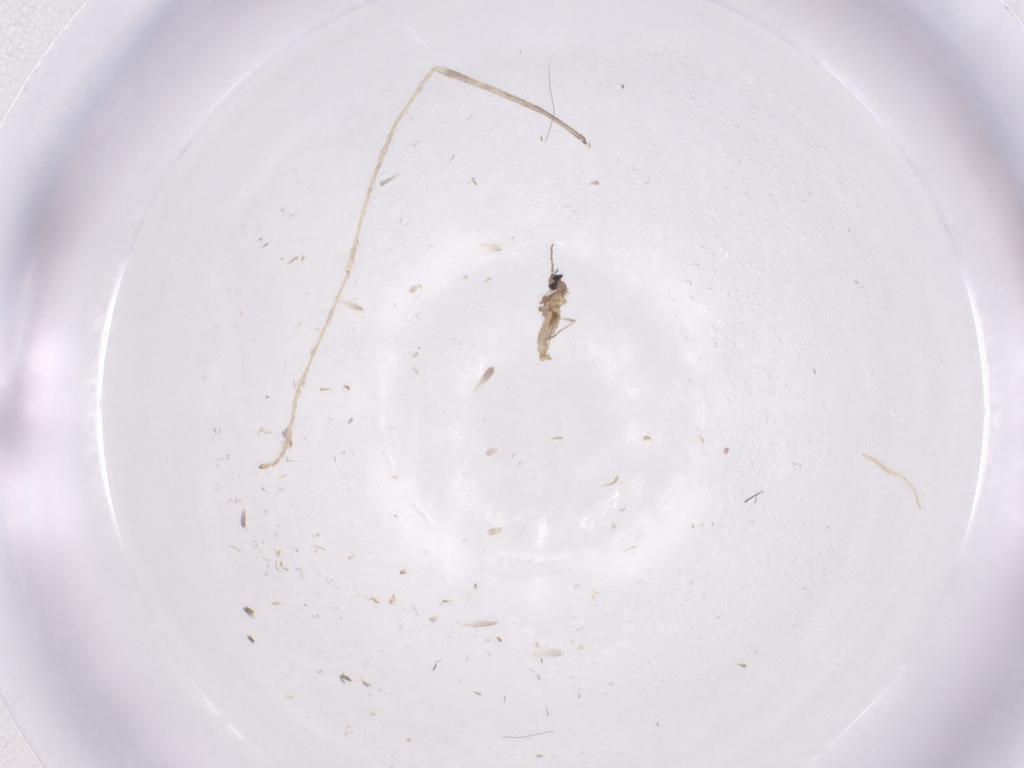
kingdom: Animalia
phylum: Arthropoda
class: Insecta
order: Diptera
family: Cecidomyiidae
